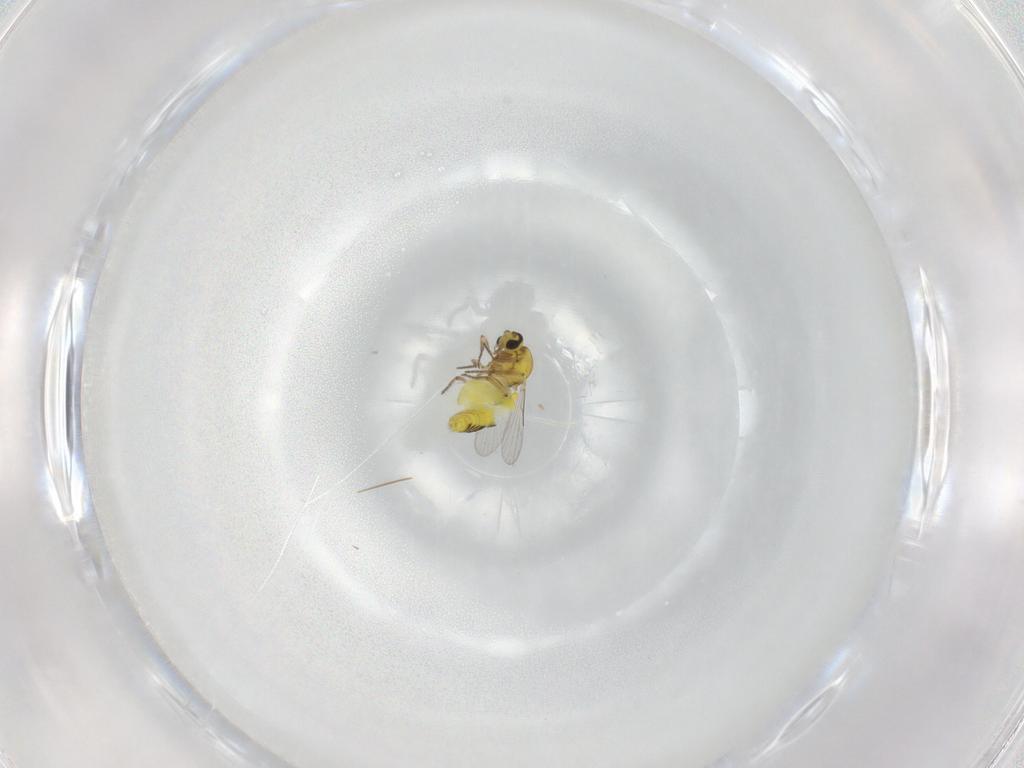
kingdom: Animalia
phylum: Arthropoda
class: Insecta
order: Diptera
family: Ceratopogonidae
